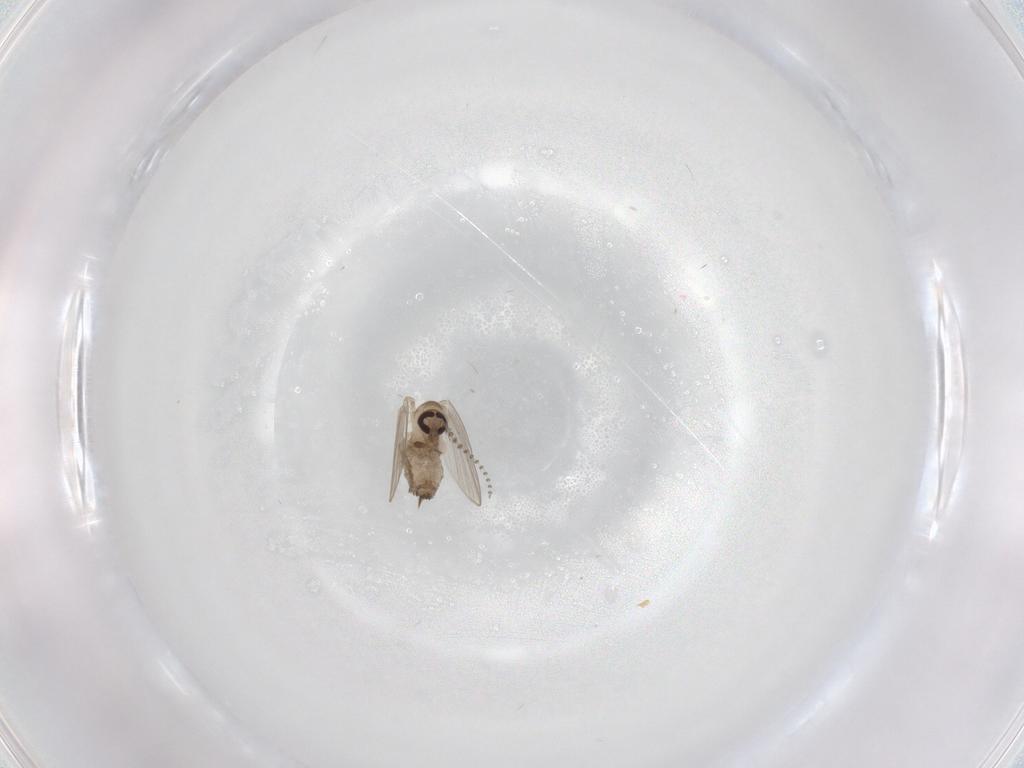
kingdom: Animalia
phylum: Arthropoda
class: Insecta
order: Diptera
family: Psychodidae
